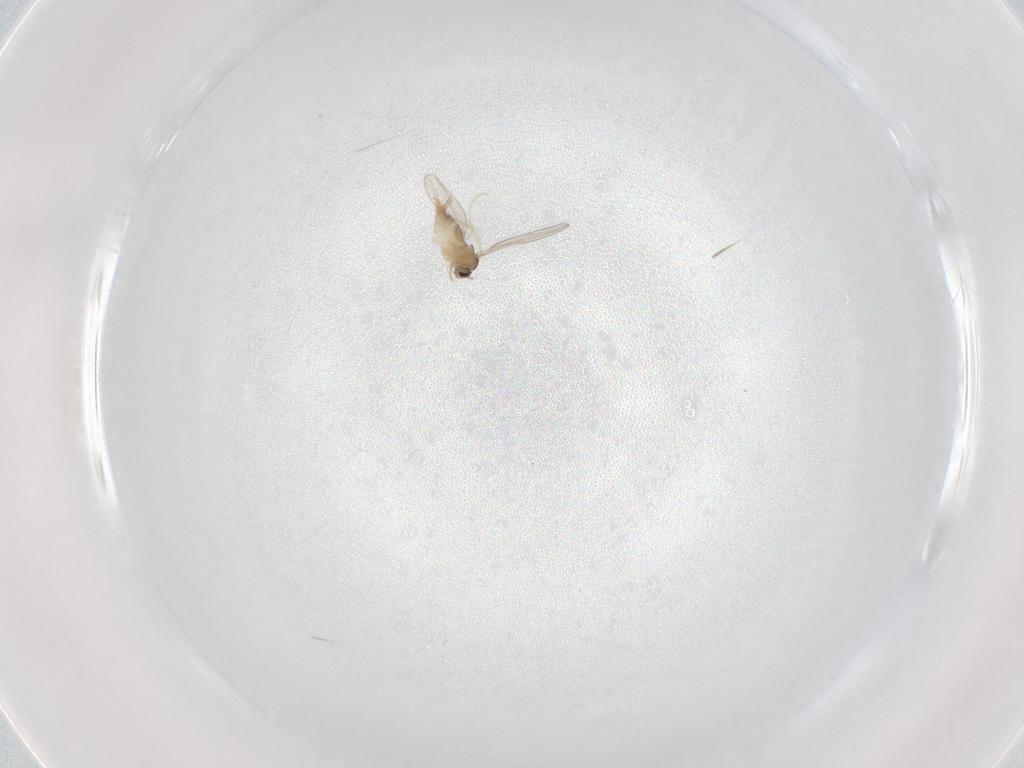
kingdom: Animalia
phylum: Arthropoda
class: Insecta
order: Diptera
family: Cecidomyiidae
